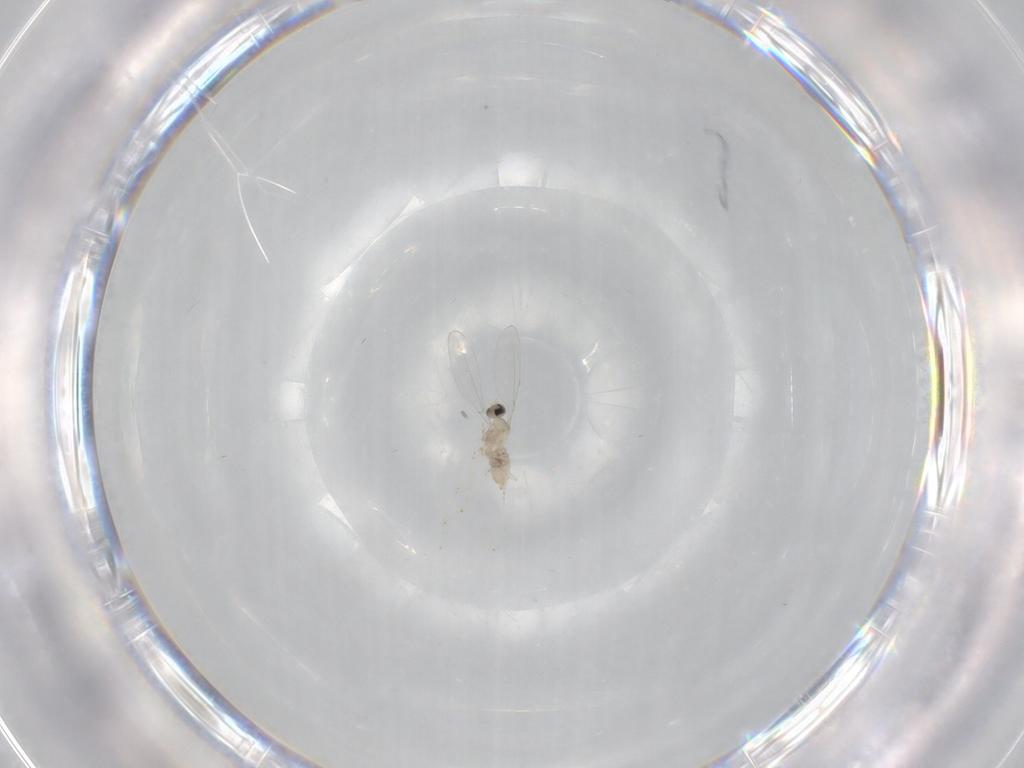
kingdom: Animalia
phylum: Arthropoda
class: Insecta
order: Diptera
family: Cecidomyiidae
